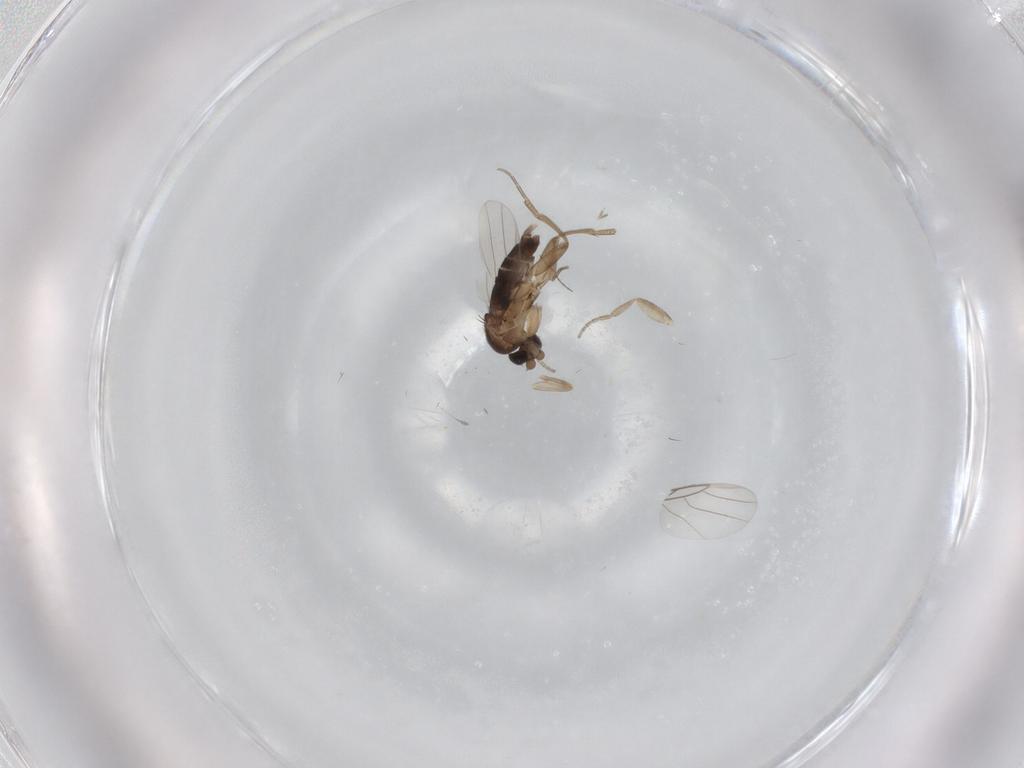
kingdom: Animalia
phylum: Arthropoda
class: Insecta
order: Diptera
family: Phoridae
